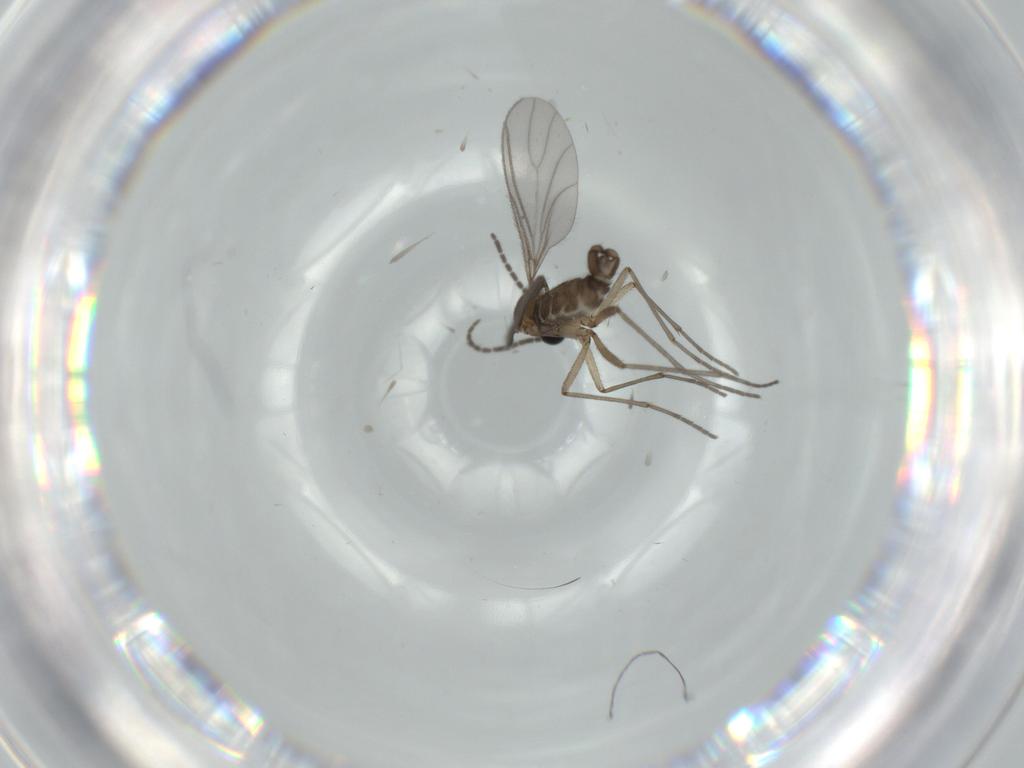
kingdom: Animalia
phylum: Arthropoda
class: Insecta
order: Diptera
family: Sciaridae
